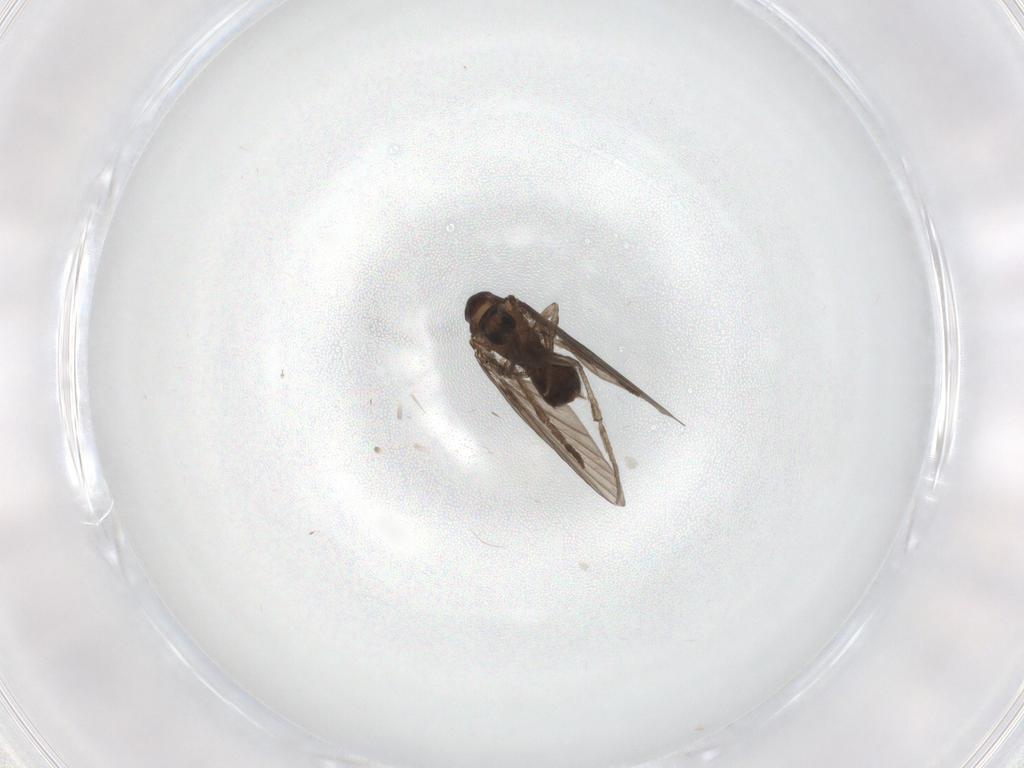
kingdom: Animalia
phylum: Arthropoda
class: Insecta
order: Diptera
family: Psychodidae
